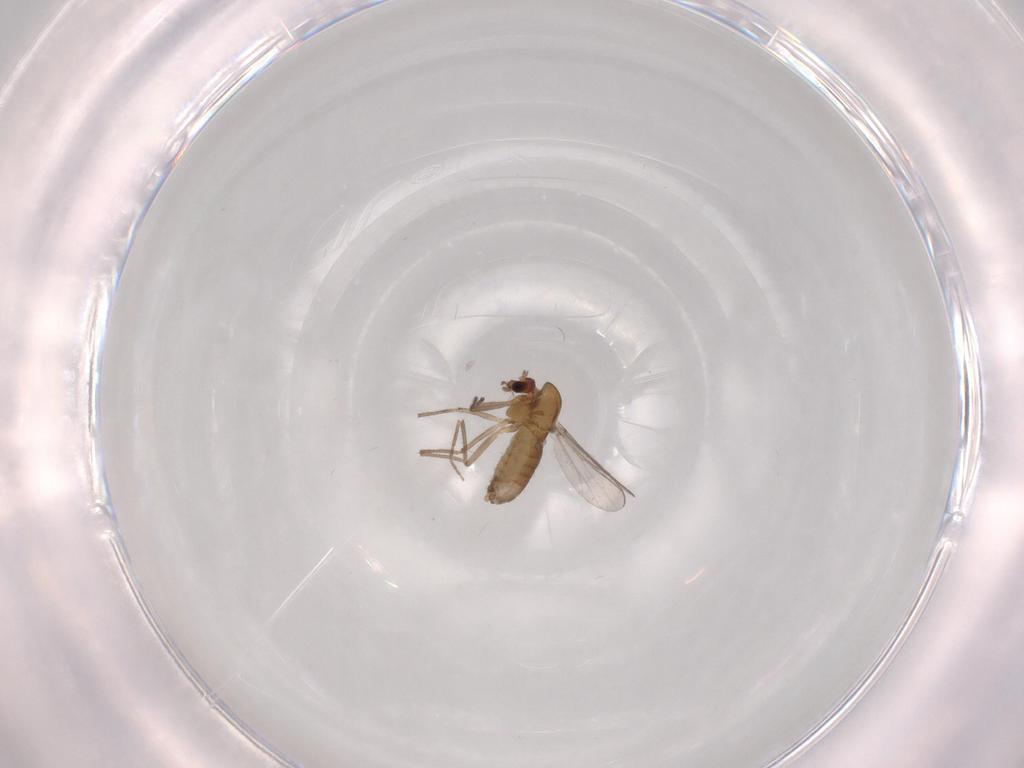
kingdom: Animalia
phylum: Arthropoda
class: Insecta
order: Diptera
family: Chironomidae
